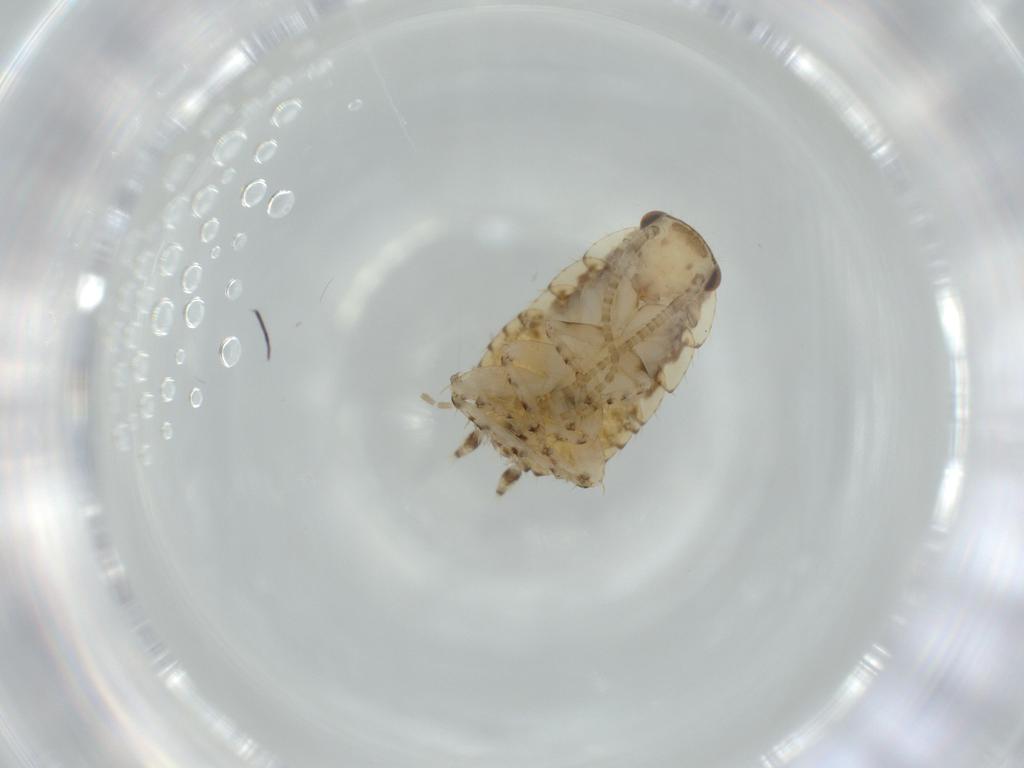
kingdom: Animalia
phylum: Arthropoda
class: Insecta
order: Blattodea
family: Ectobiidae
